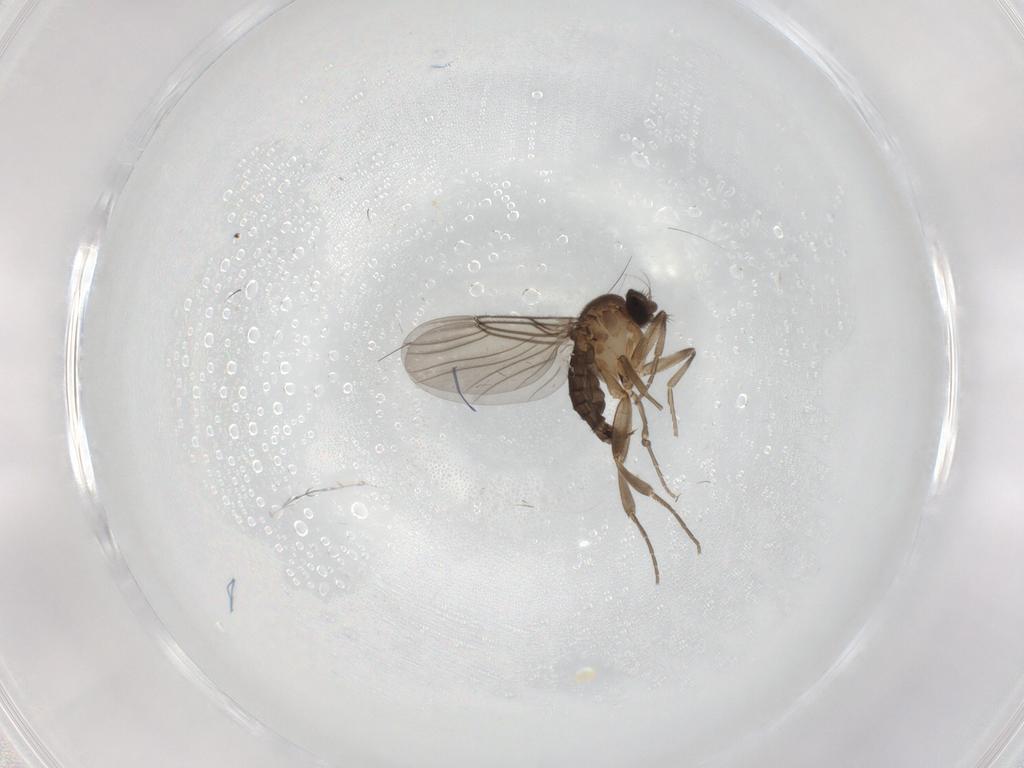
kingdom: Animalia
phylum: Arthropoda
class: Insecta
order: Diptera
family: Phoridae
